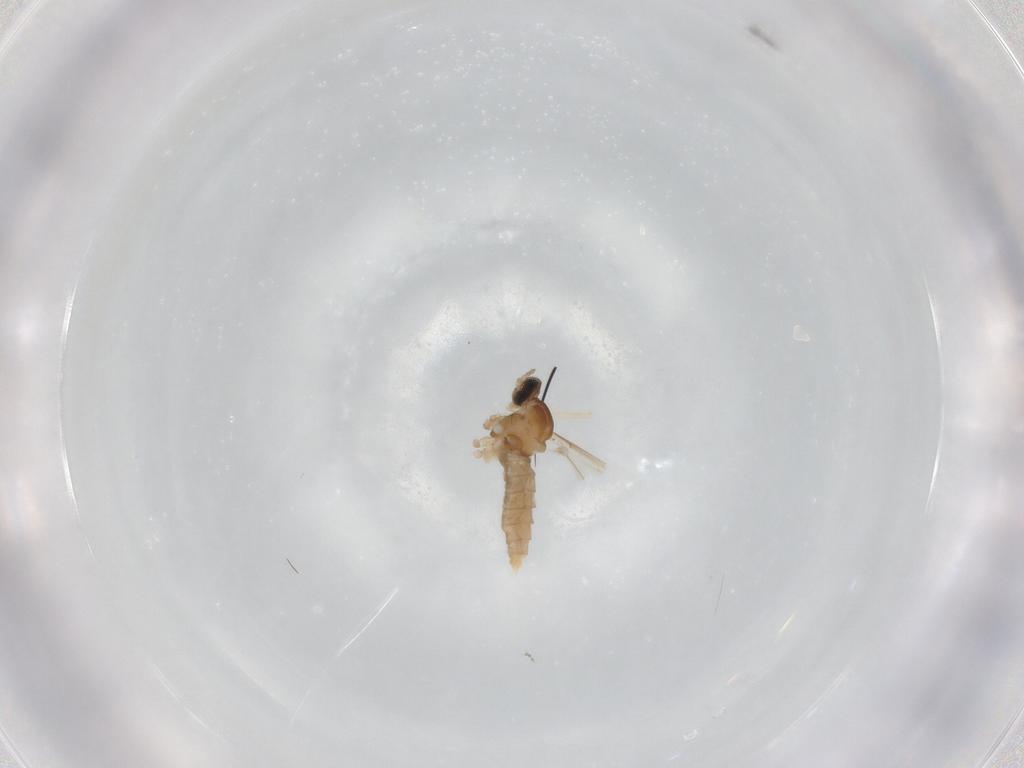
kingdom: Animalia
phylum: Arthropoda
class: Insecta
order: Diptera
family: Cecidomyiidae
